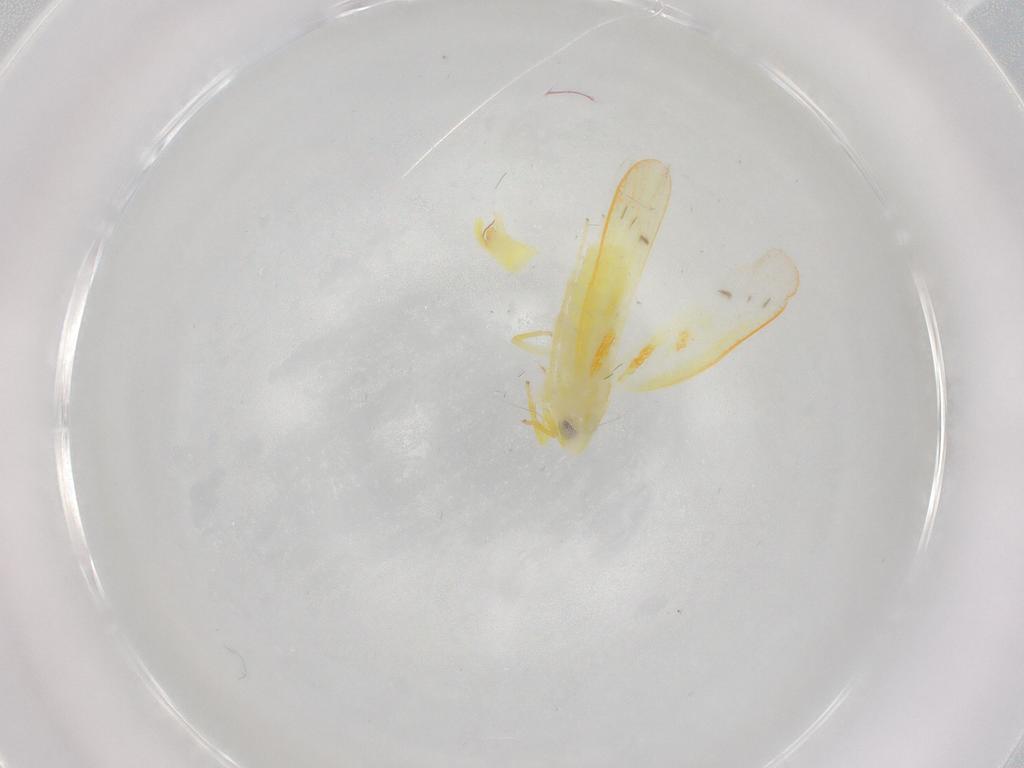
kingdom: Animalia
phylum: Arthropoda
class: Insecta
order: Hemiptera
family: Cicadellidae
